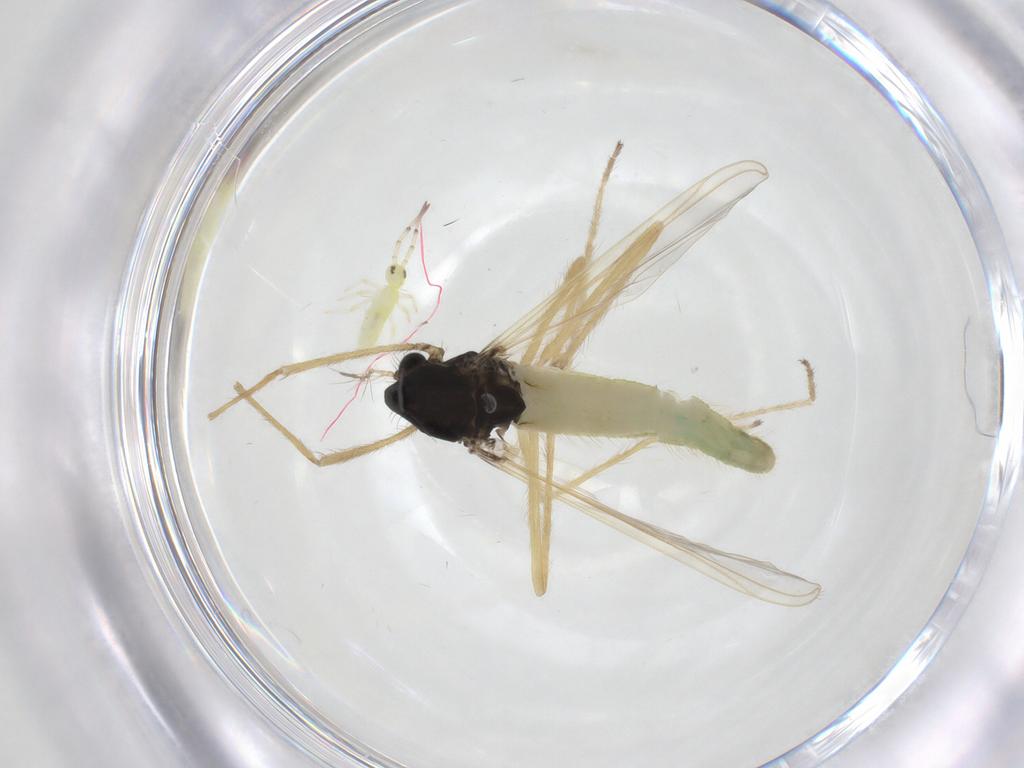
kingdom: Animalia
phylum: Arthropoda
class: Insecta
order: Diptera
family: Chironomidae
